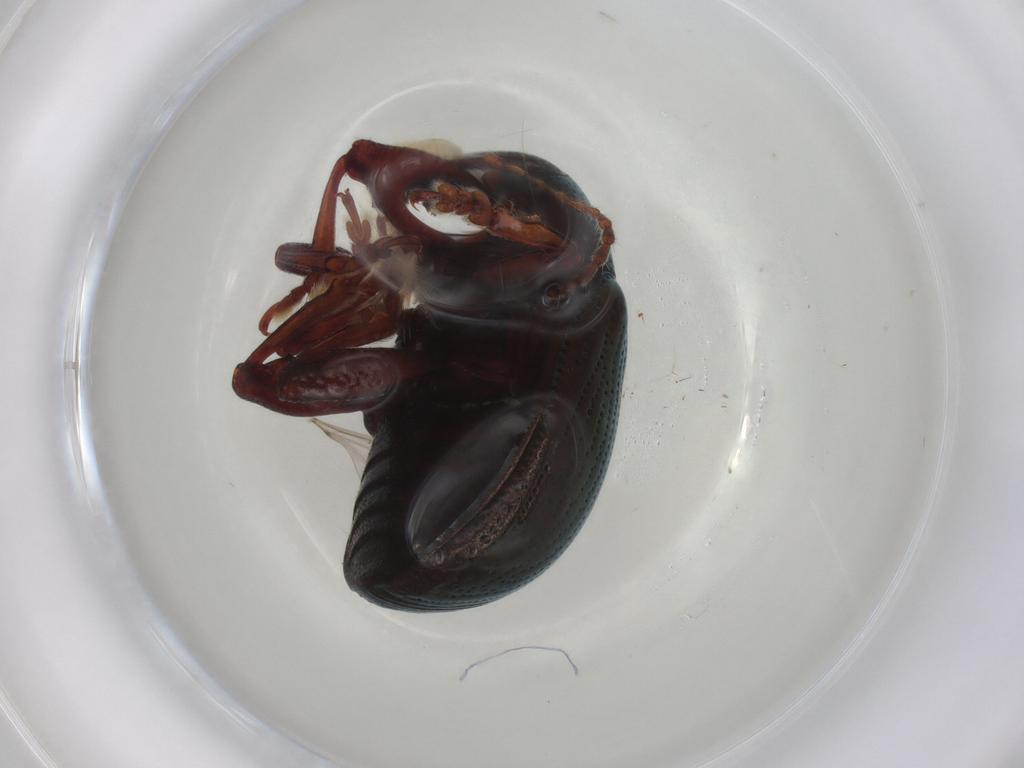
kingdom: Animalia
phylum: Arthropoda
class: Insecta
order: Coleoptera
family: Chrysomelidae
